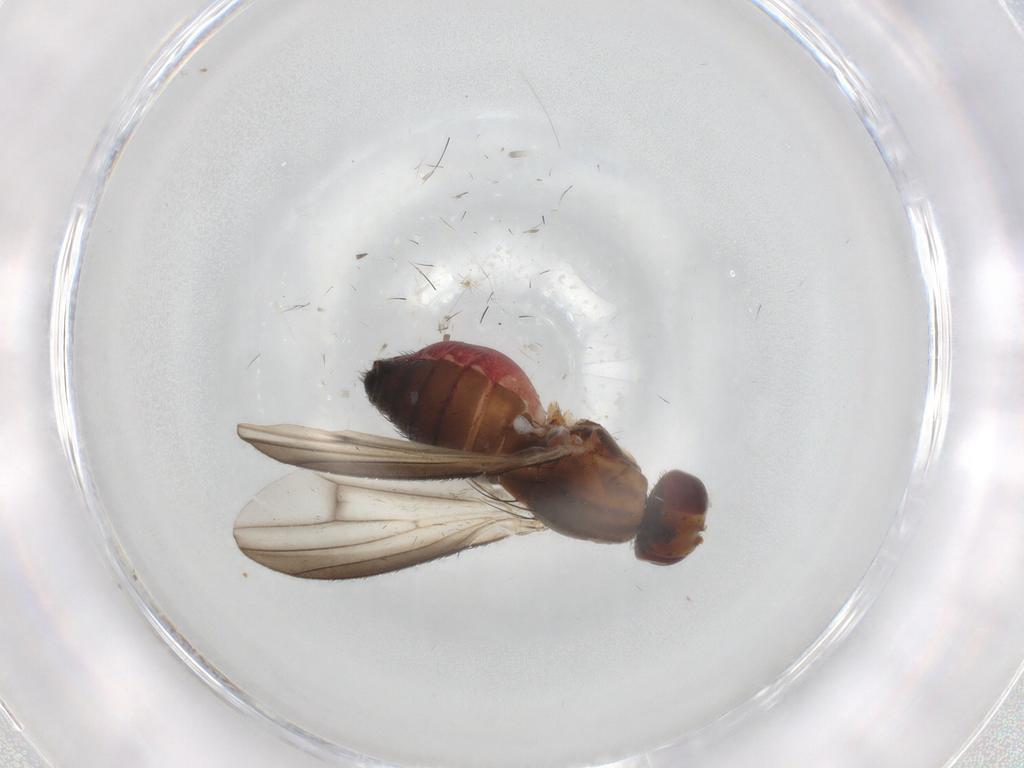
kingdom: Animalia
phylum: Arthropoda
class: Insecta
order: Diptera
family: Heleomyzidae
